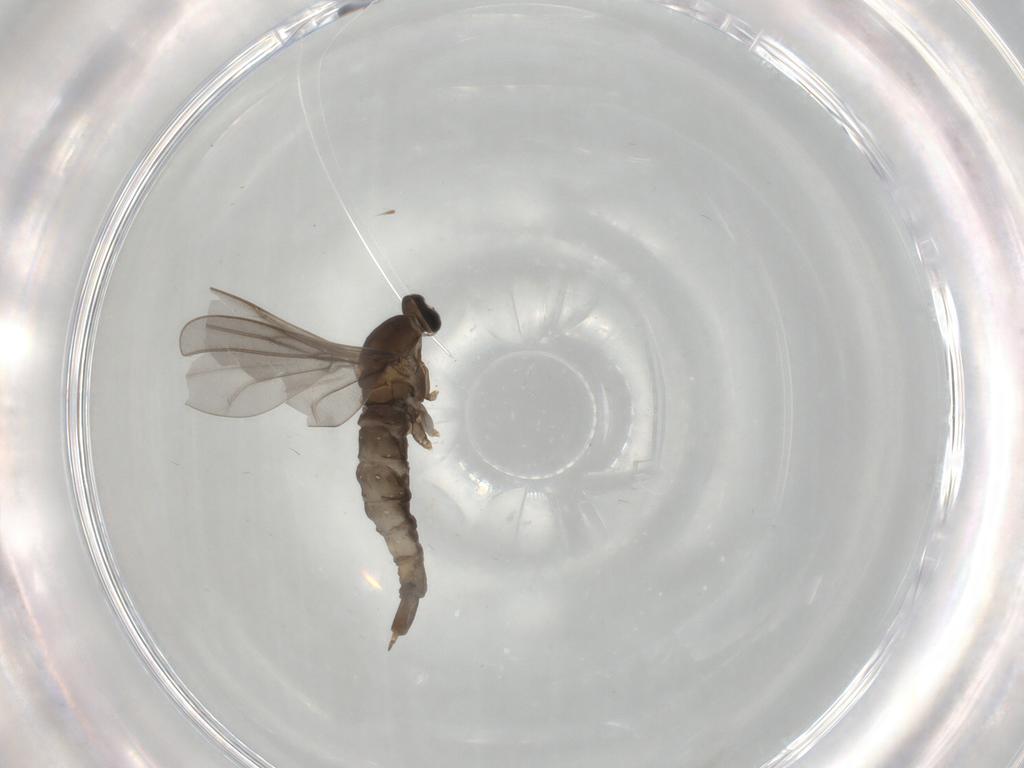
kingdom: Animalia
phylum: Arthropoda
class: Insecta
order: Diptera
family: Cecidomyiidae
